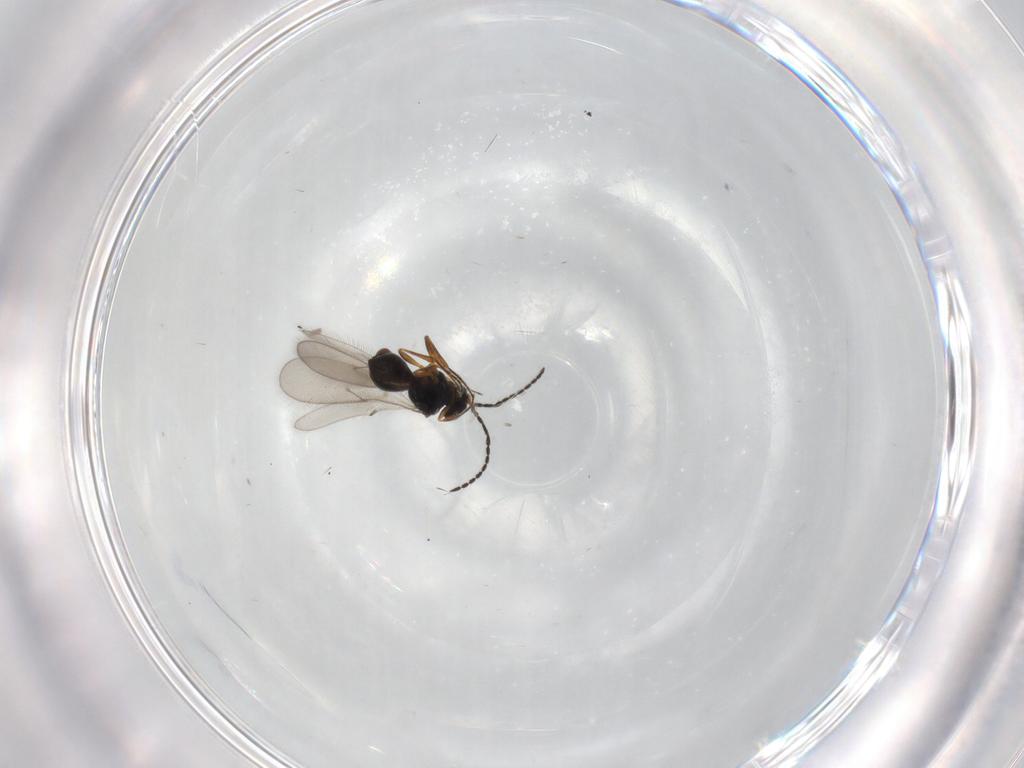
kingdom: Animalia
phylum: Arthropoda
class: Insecta
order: Hymenoptera
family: Scelionidae
